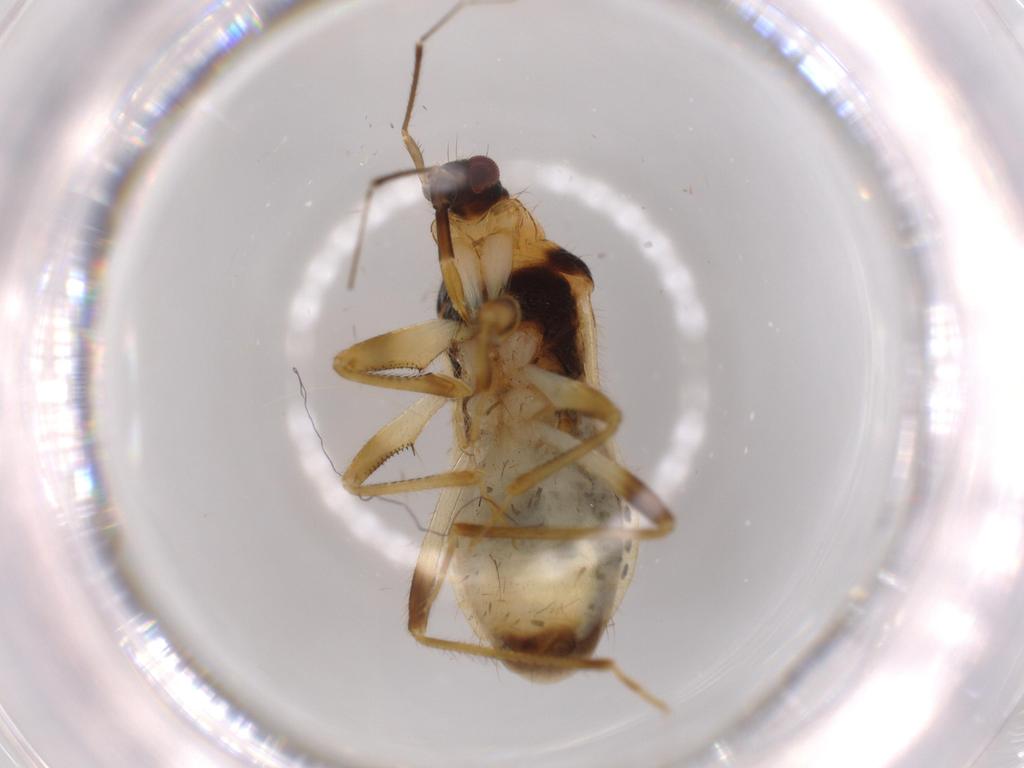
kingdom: Animalia
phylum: Arthropoda
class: Insecta
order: Hemiptera
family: Nabidae
